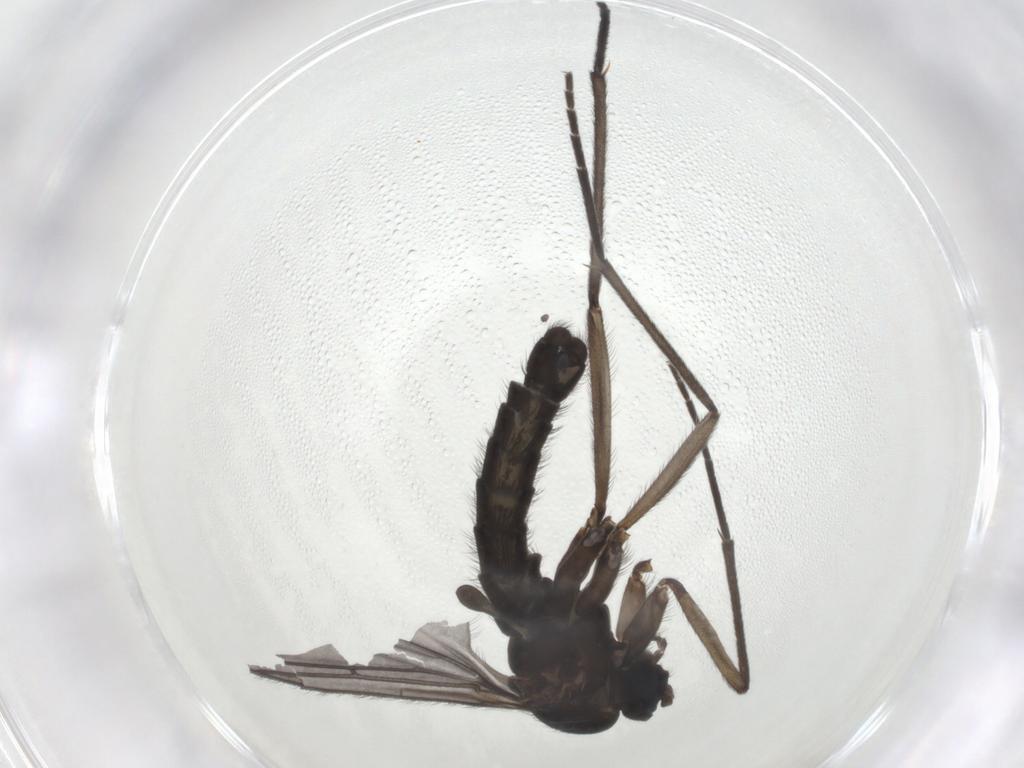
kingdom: Animalia
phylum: Arthropoda
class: Insecta
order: Diptera
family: Sciaridae
